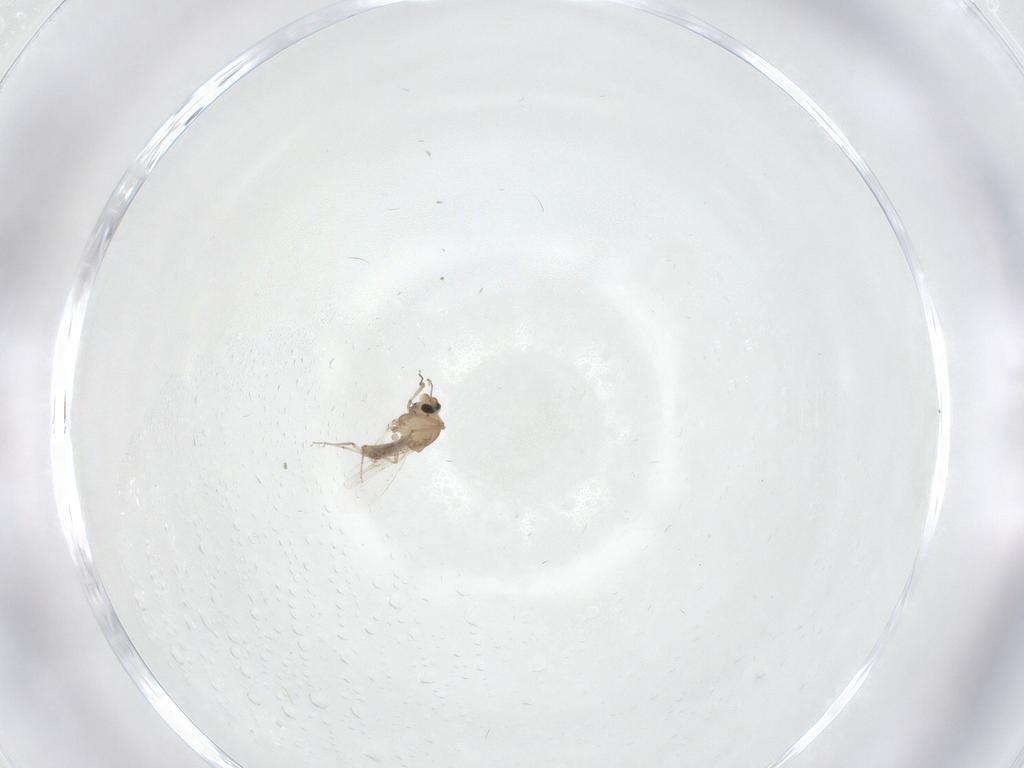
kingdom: Animalia
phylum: Arthropoda
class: Insecta
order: Diptera
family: Ceratopogonidae
